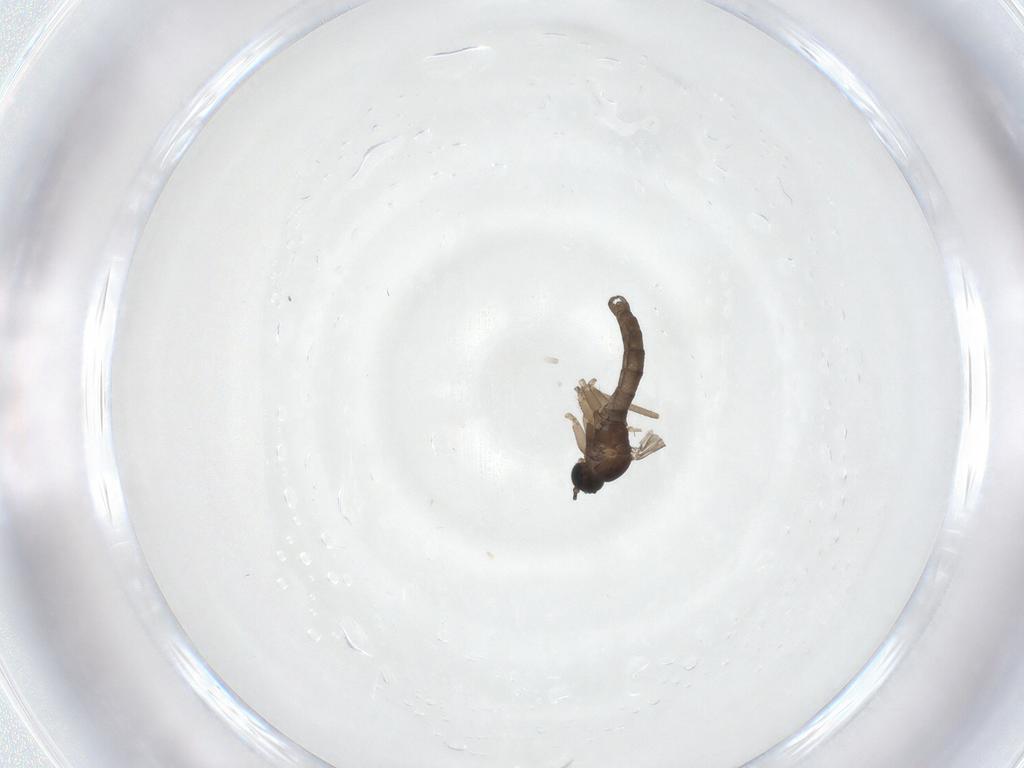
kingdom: Animalia
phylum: Arthropoda
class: Insecta
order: Diptera
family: Sciaridae
